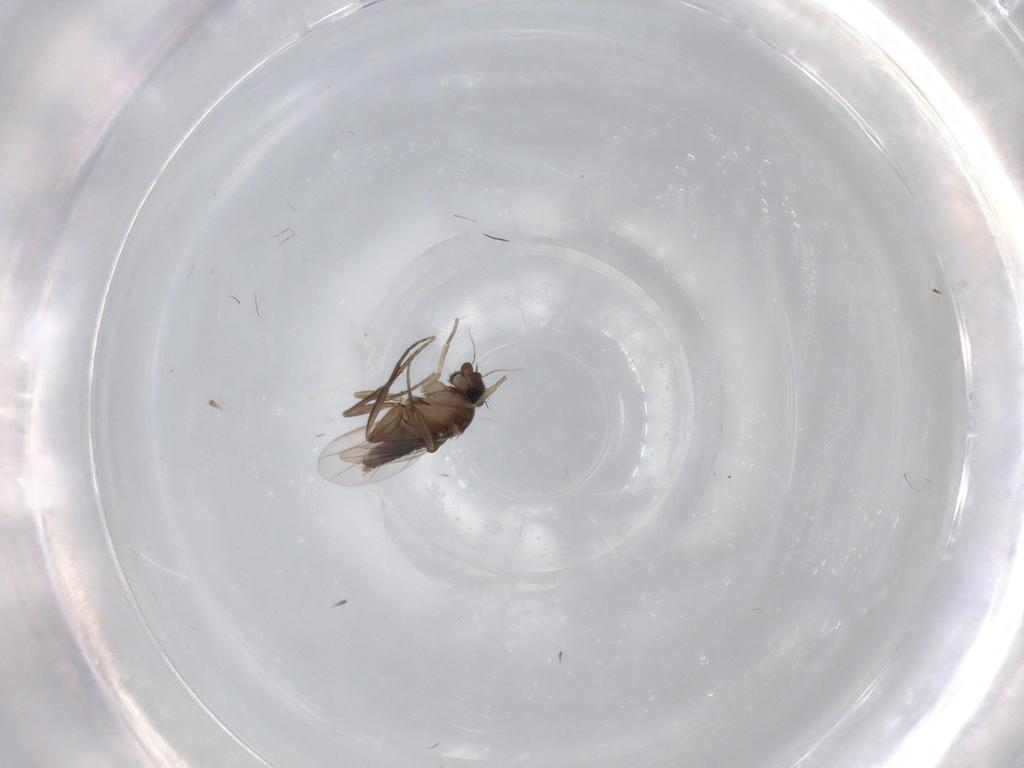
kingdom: Animalia
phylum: Arthropoda
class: Insecta
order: Diptera
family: Phoridae
